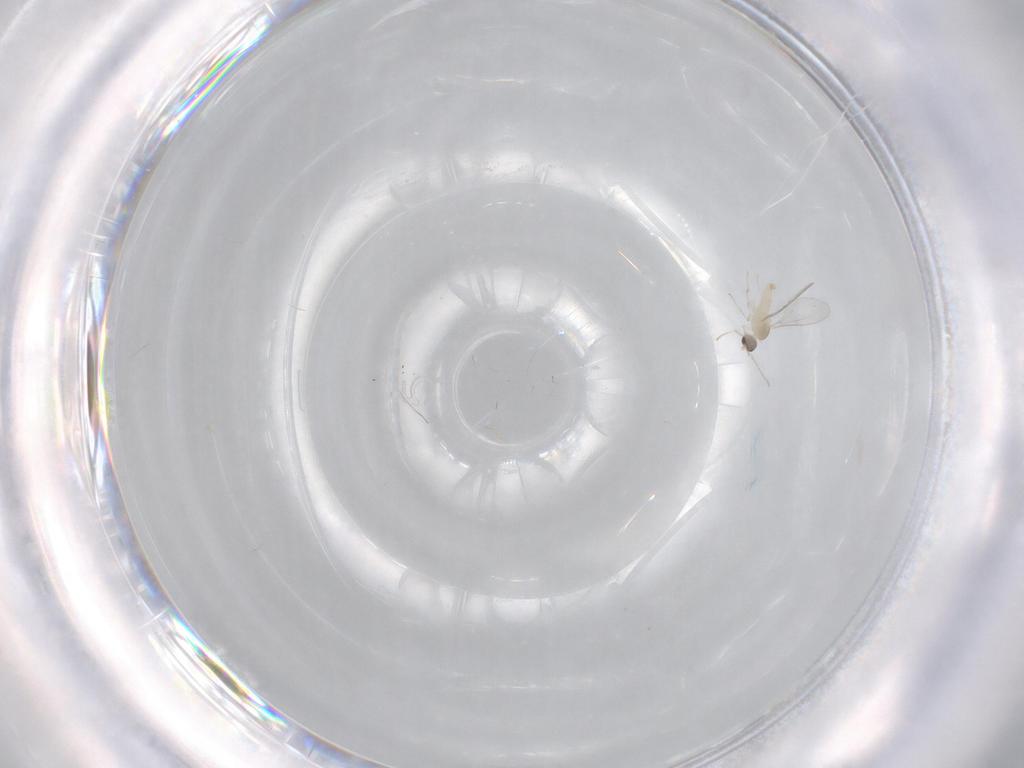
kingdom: Animalia
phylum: Arthropoda
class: Insecta
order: Diptera
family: Cecidomyiidae
